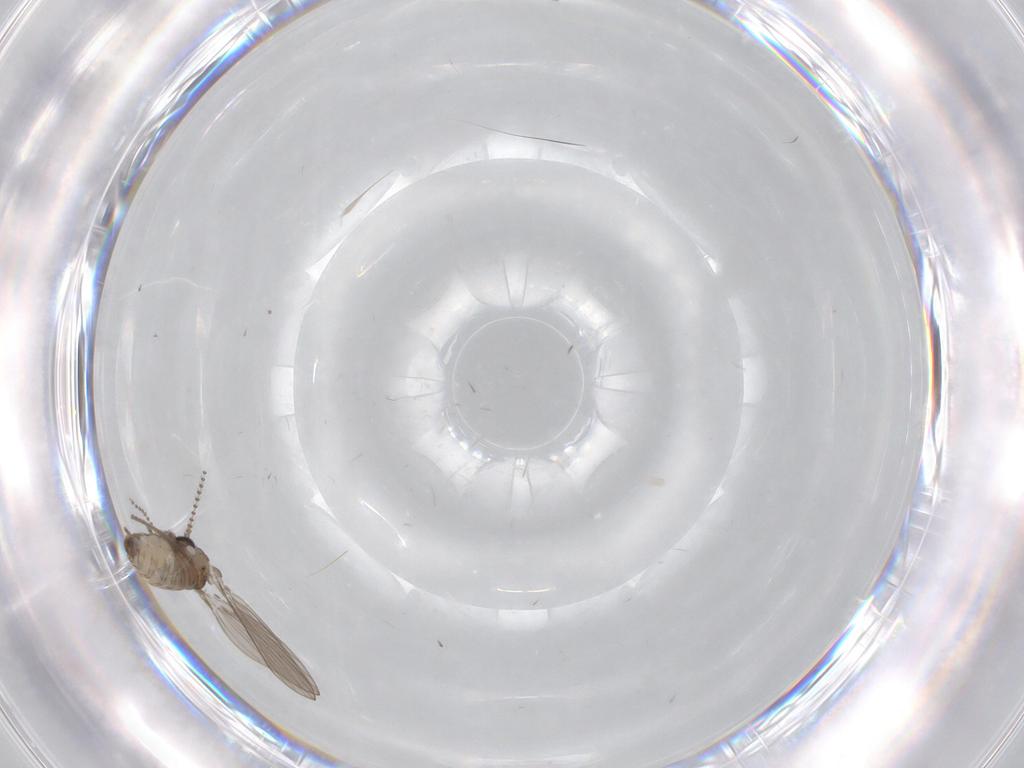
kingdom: Animalia
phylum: Arthropoda
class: Insecta
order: Diptera
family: Psychodidae
